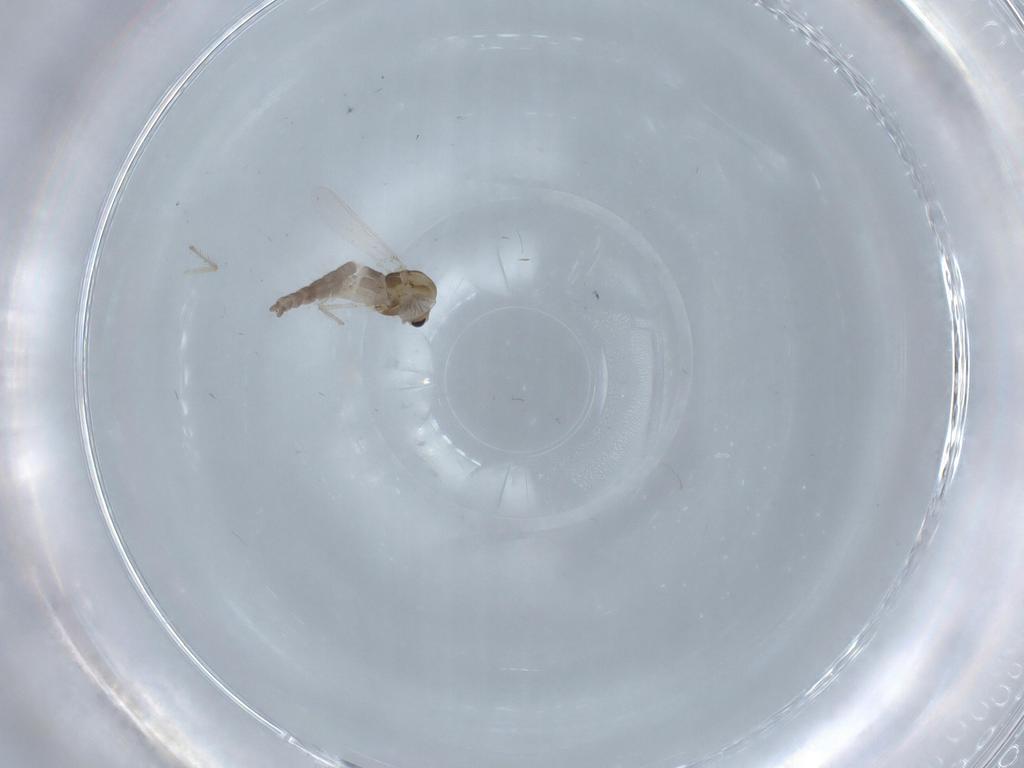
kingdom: Animalia
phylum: Arthropoda
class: Insecta
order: Diptera
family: Chironomidae
